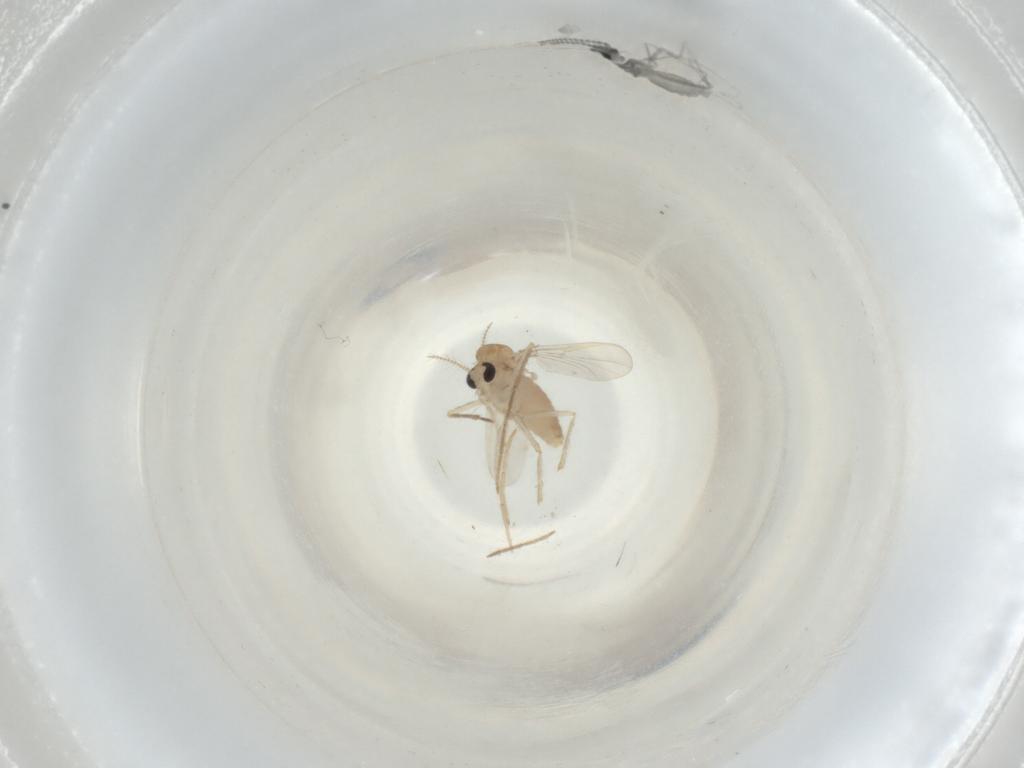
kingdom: Animalia
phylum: Arthropoda
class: Insecta
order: Diptera
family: Chironomidae
